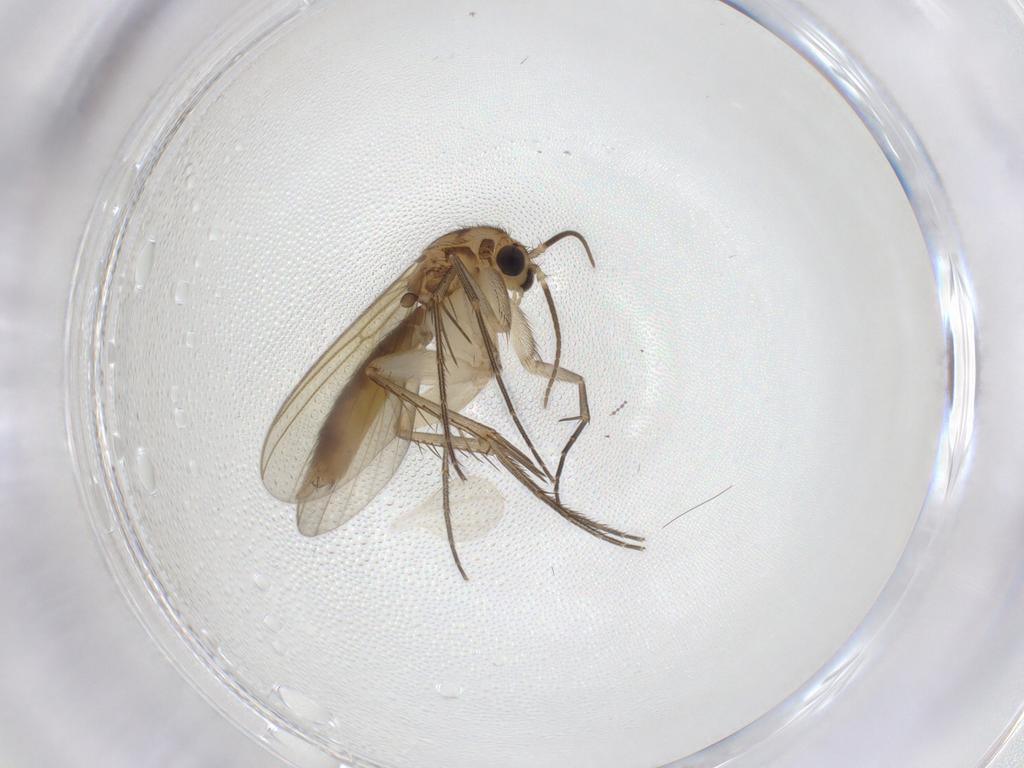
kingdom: Animalia
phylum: Arthropoda
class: Insecta
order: Diptera
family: Mycetophilidae
